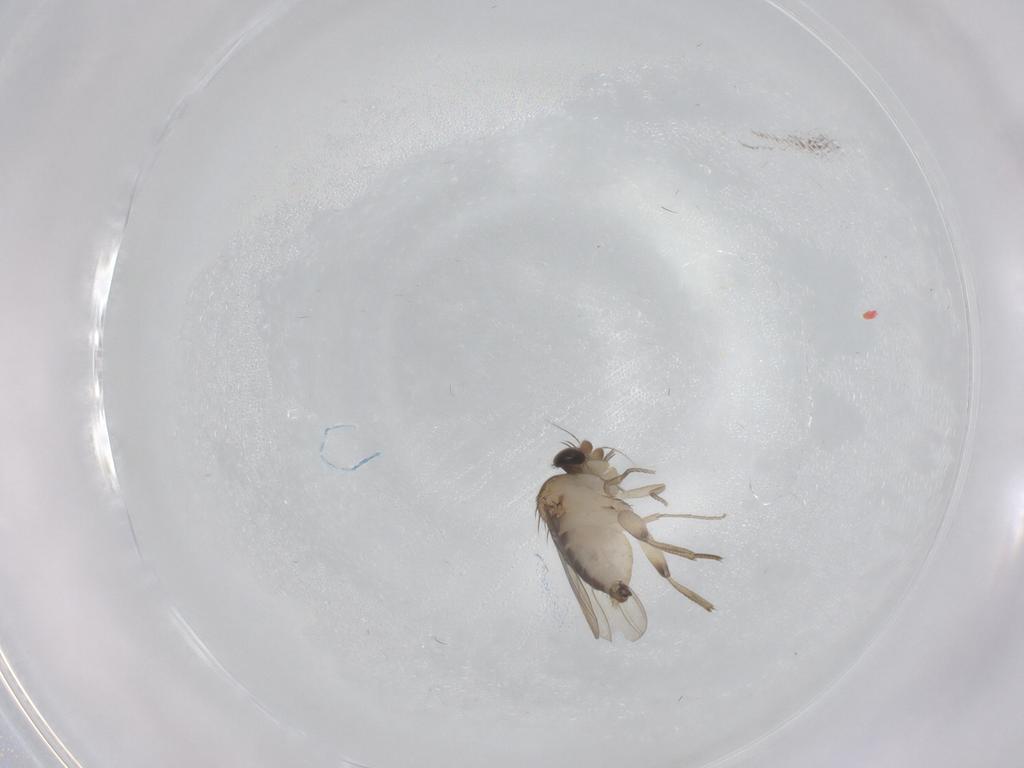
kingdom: Animalia
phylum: Arthropoda
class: Insecta
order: Diptera
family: Phoridae
